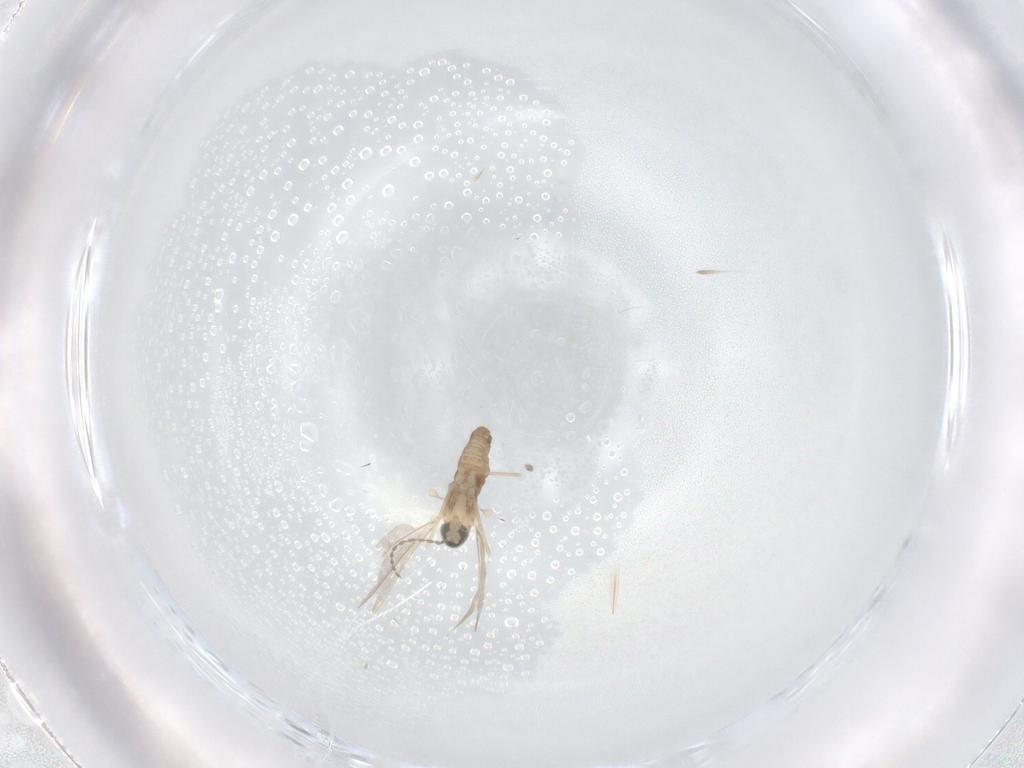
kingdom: Animalia
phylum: Arthropoda
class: Insecta
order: Diptera
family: Cecidomyiidae
